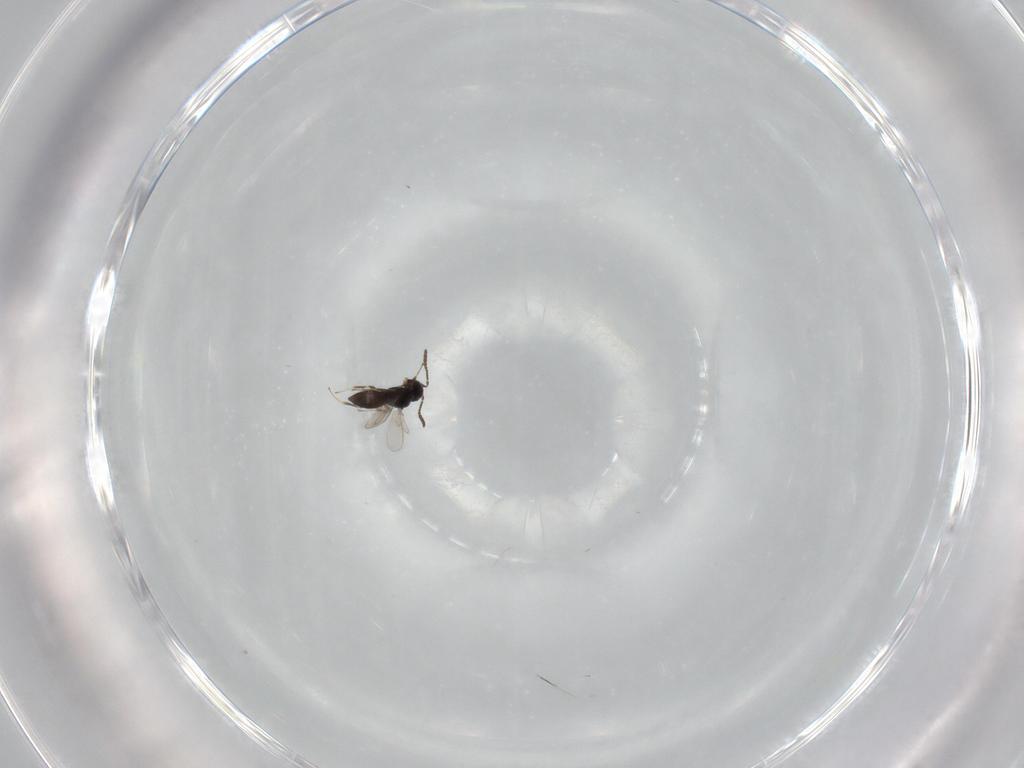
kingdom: Animalia
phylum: Arthropoda
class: Insecta
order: Hymenoptera
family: Scelionidae
